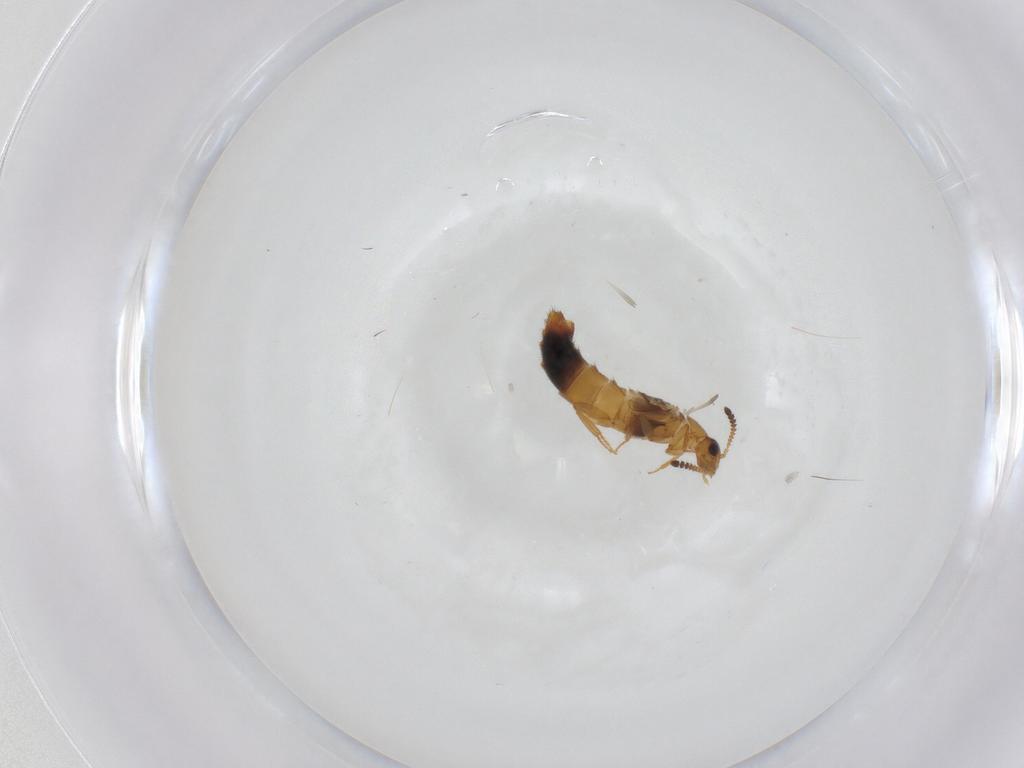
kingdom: Animalia
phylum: Arthropoda
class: Insecta
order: Coleoptera
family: Staphylinidae
